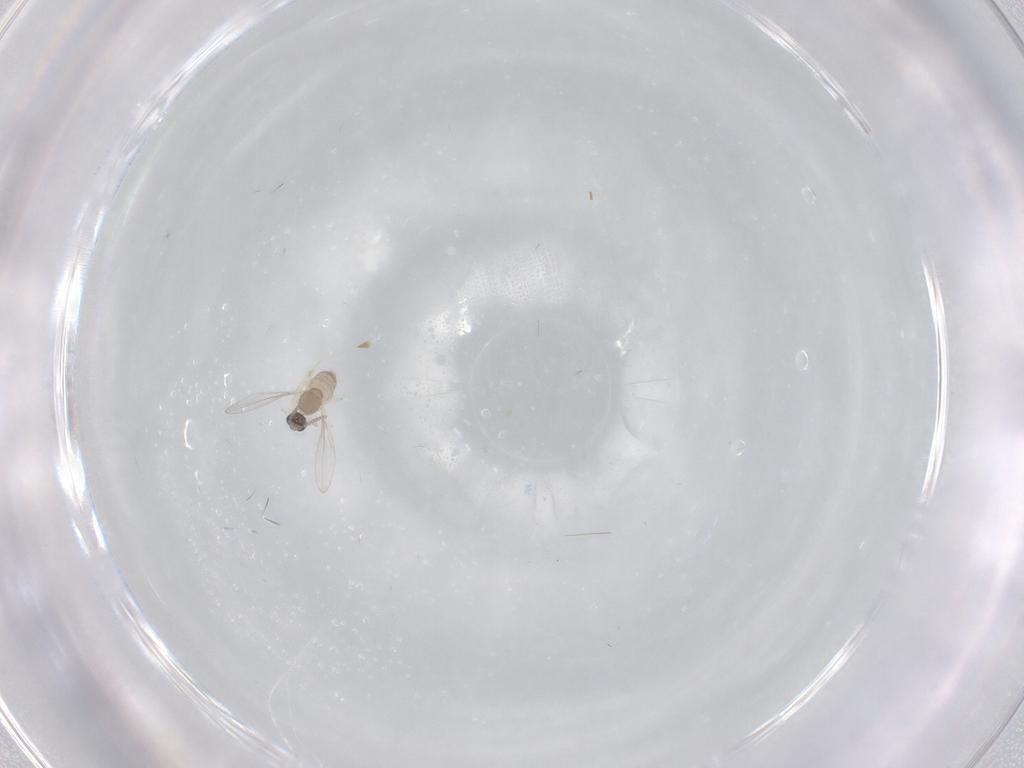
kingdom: Animalia
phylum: Arthropoda
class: Insecta
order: Diptera
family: Cecidomyiidae
